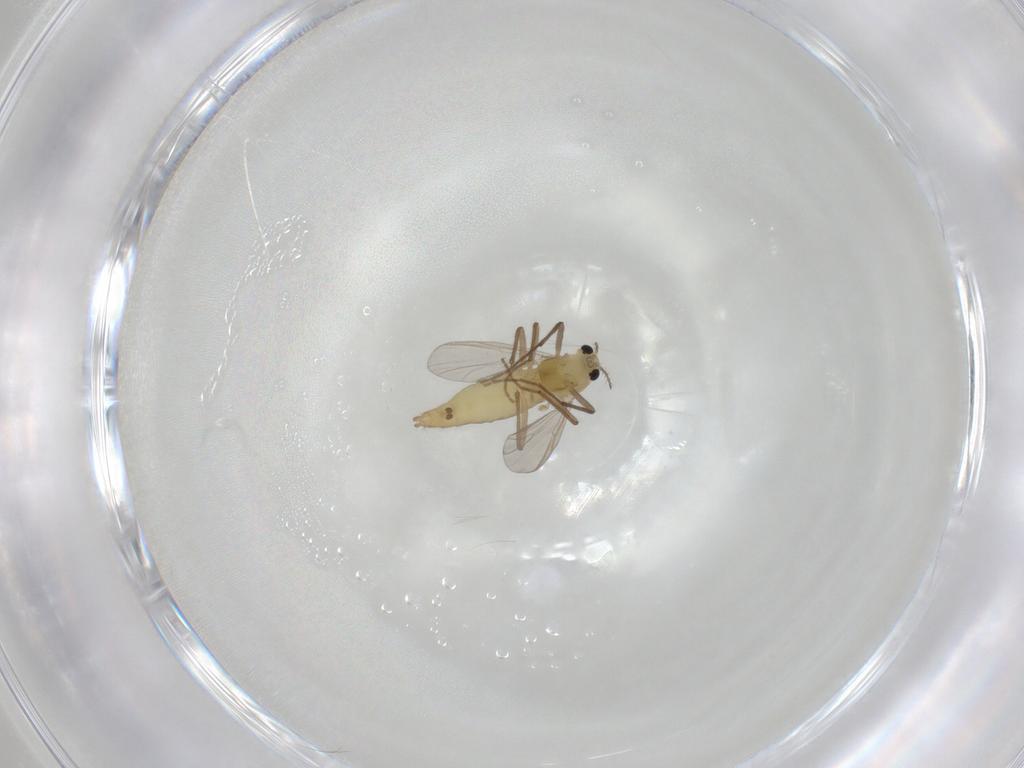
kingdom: Animalia
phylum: Arthropoda
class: Insecta
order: Diptera
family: Chironomidae
